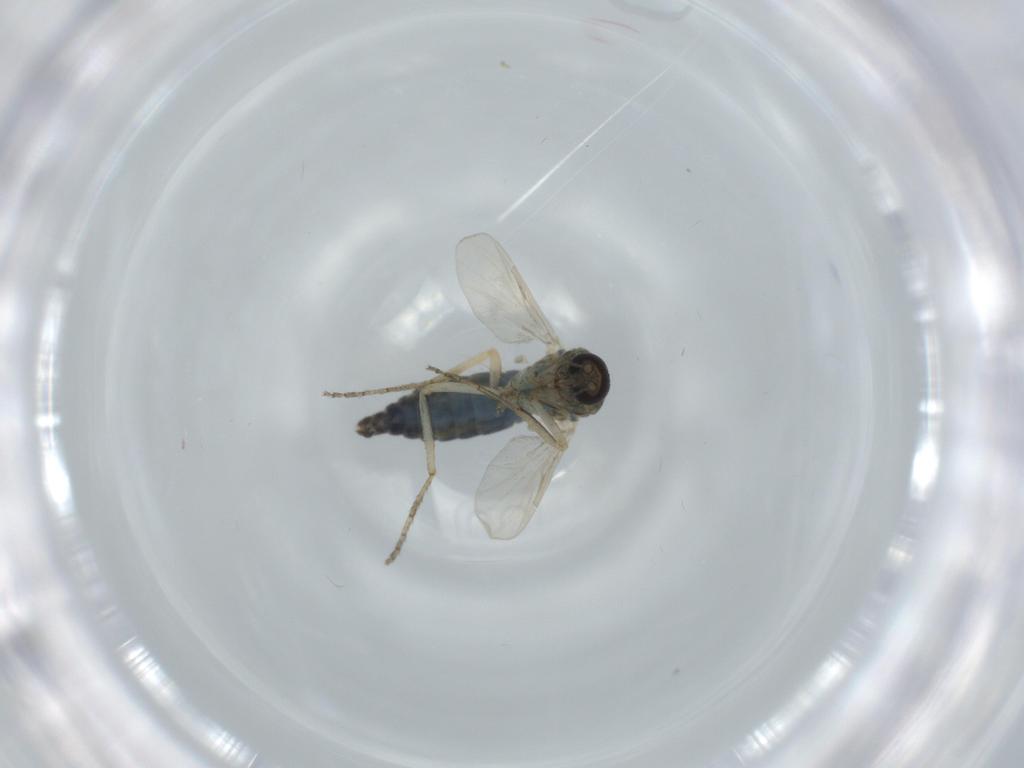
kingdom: Animalia
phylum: Arthropoda
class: Insecta
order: Diptera
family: Ceratopogonidae
